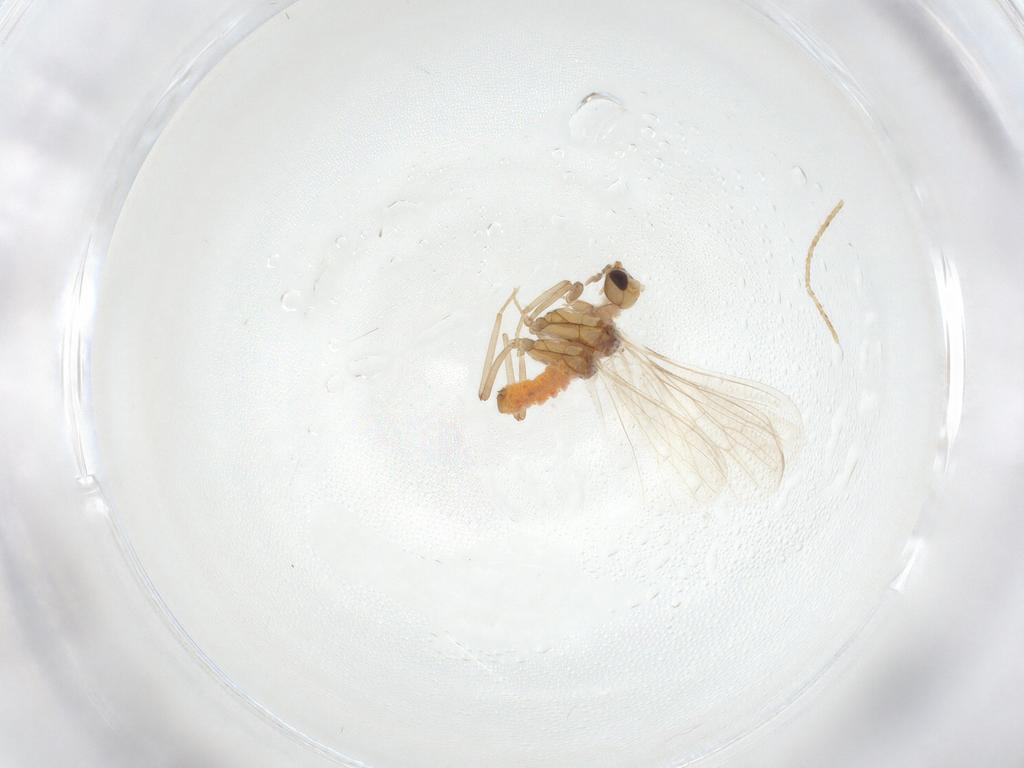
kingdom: Animalia
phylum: Arthropoda
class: Insecta
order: Neuroptera
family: Coniopterygidae
